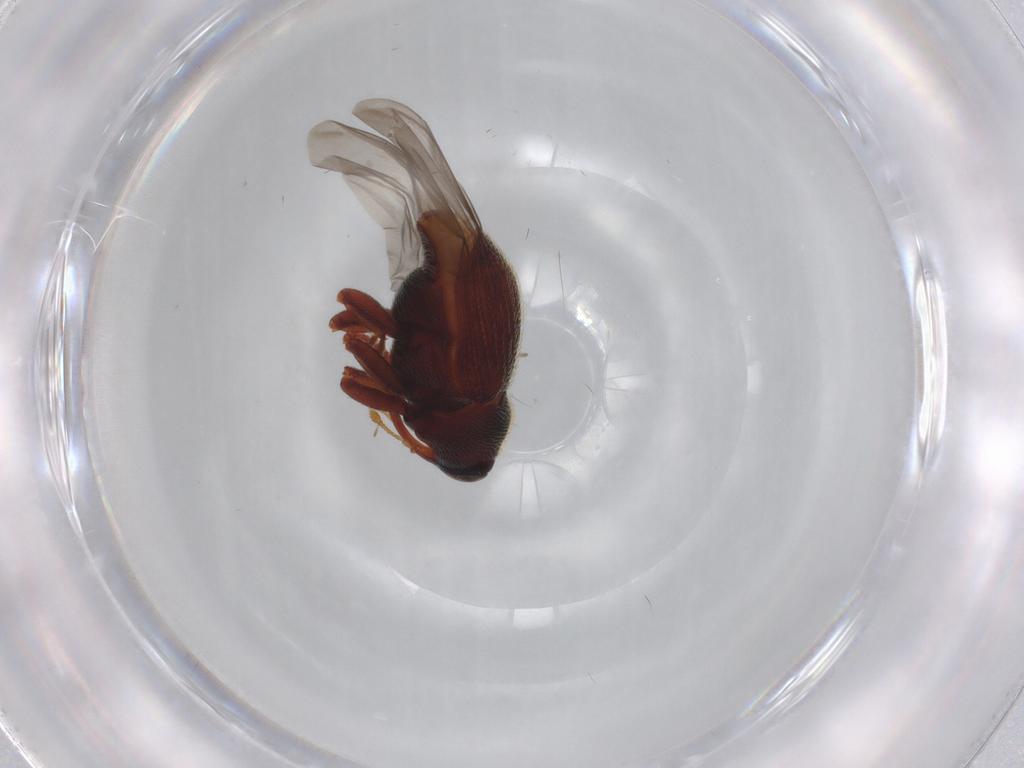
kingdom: Animalia
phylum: Arthropoda
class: Insecta
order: Coleoptera
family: Curculionidae
